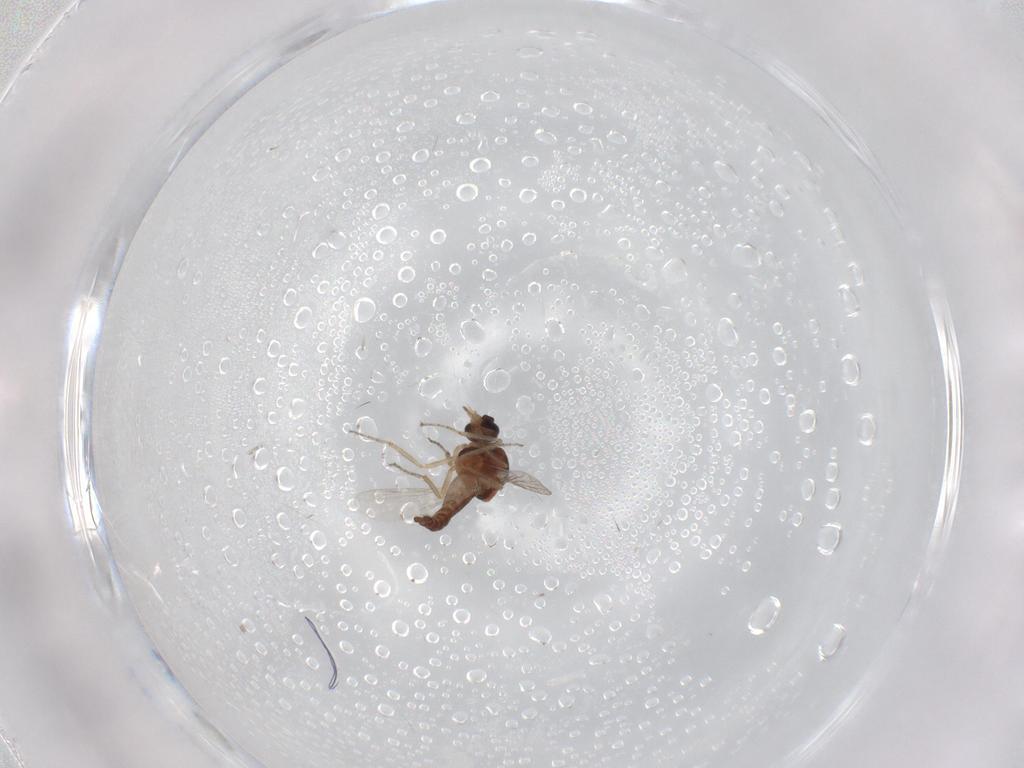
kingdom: Animalia
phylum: Arthropoda
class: Insecta
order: Diptera
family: Ceratopogonidae
